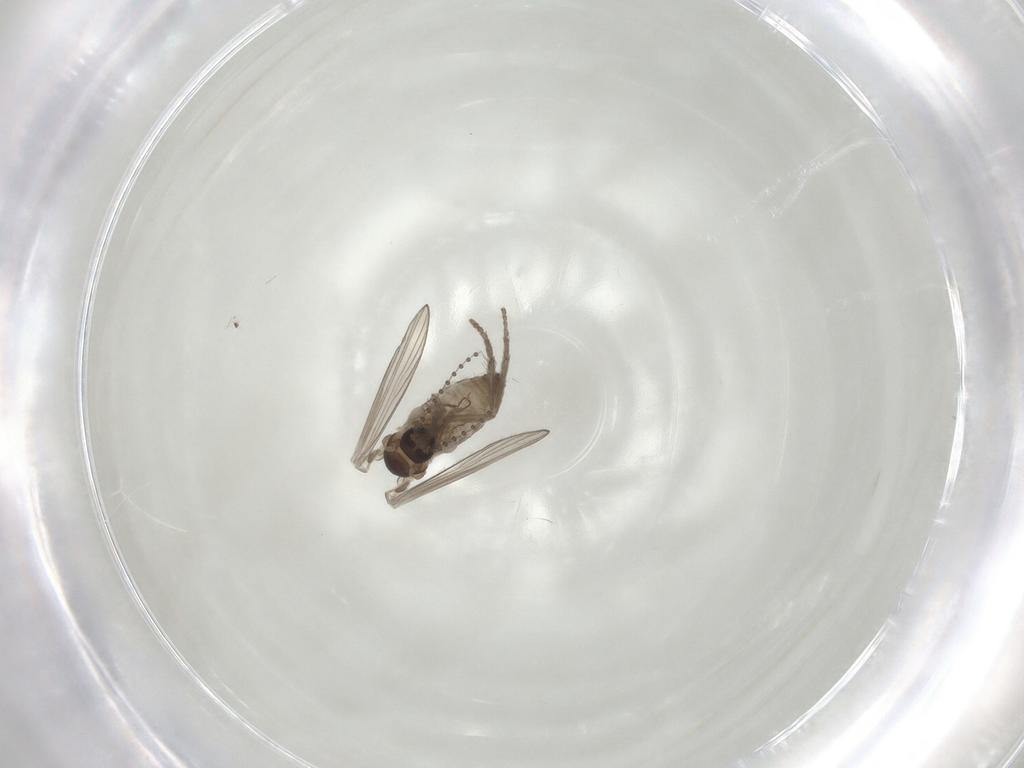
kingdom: Animalia
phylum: Arthropoda
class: Insecta
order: Diptera
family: Psychodidae
